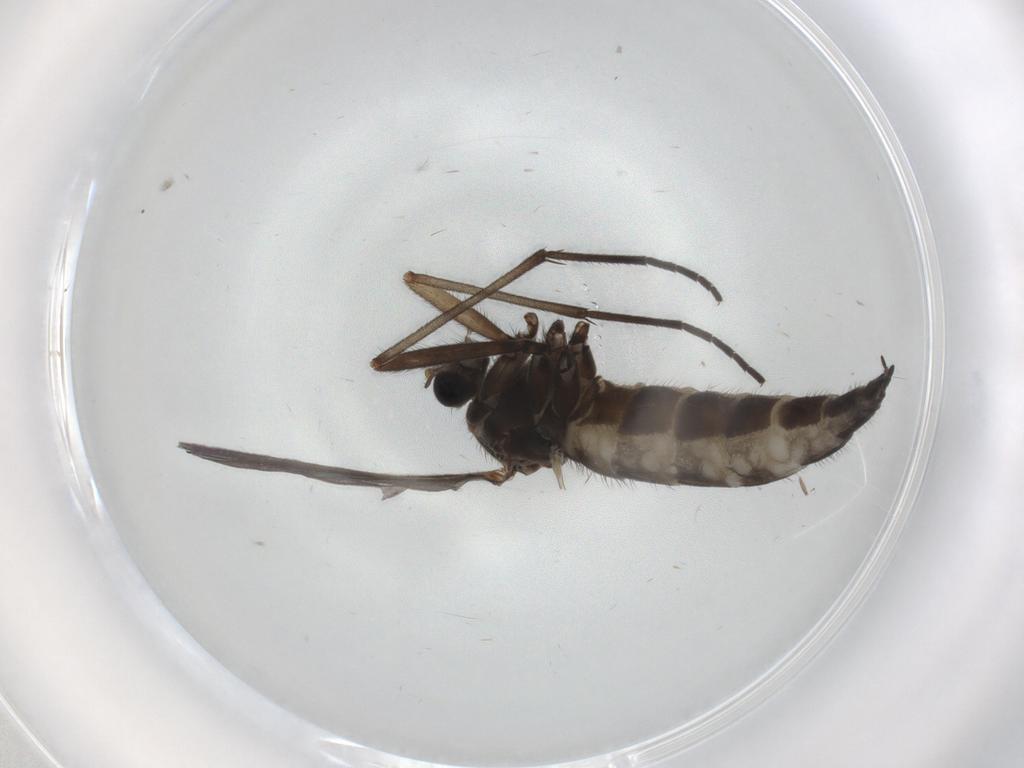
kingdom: Animalia
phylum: Arthropoda
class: Insecta
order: Diptera
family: Sciaridae
